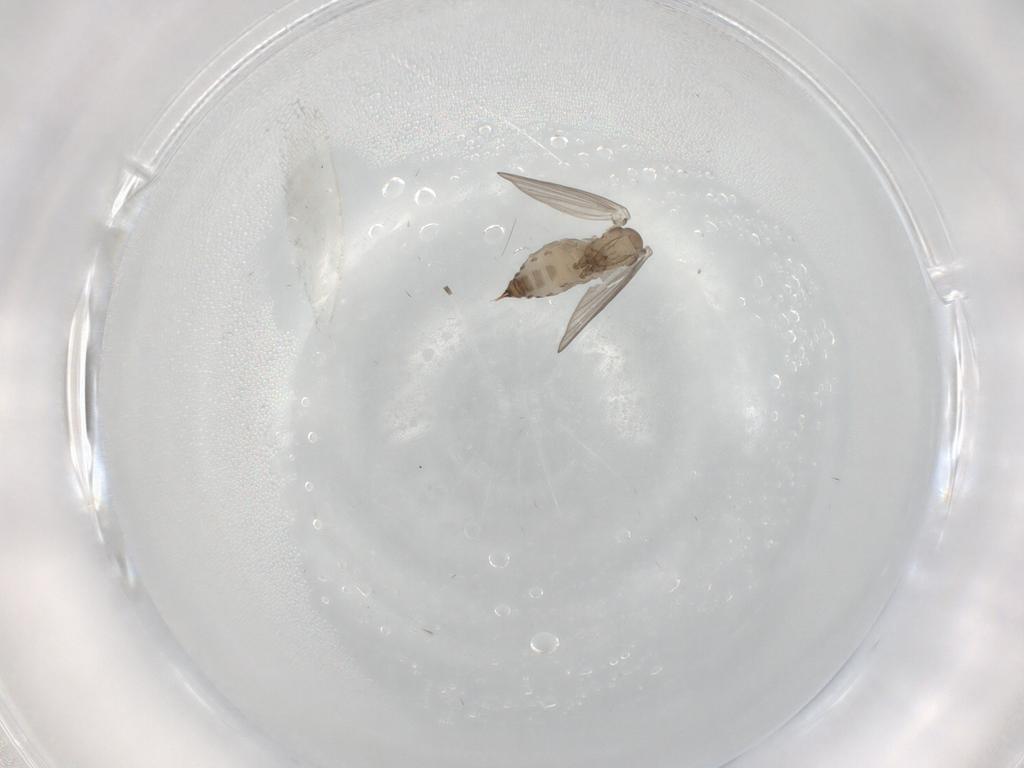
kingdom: Animalia
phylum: Arthropoda
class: Insecta
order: Diptera
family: Psychodidae
